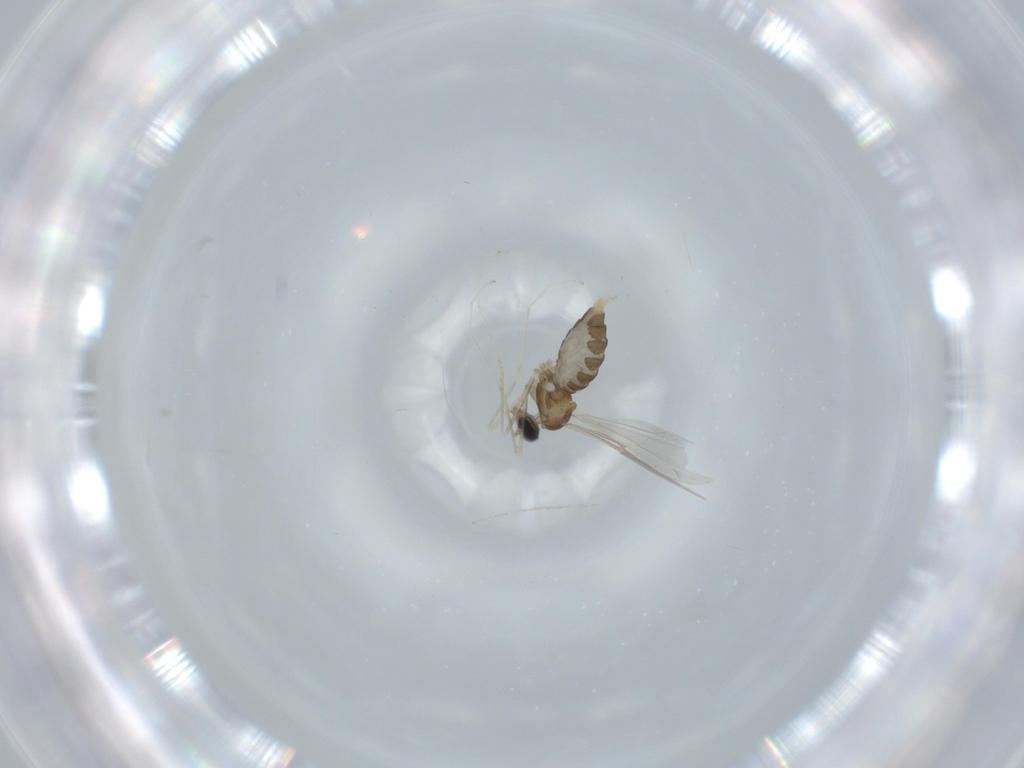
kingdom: Animalia
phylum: Arthropoda
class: Insecta
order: Diptera
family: Cecidomyiidae
